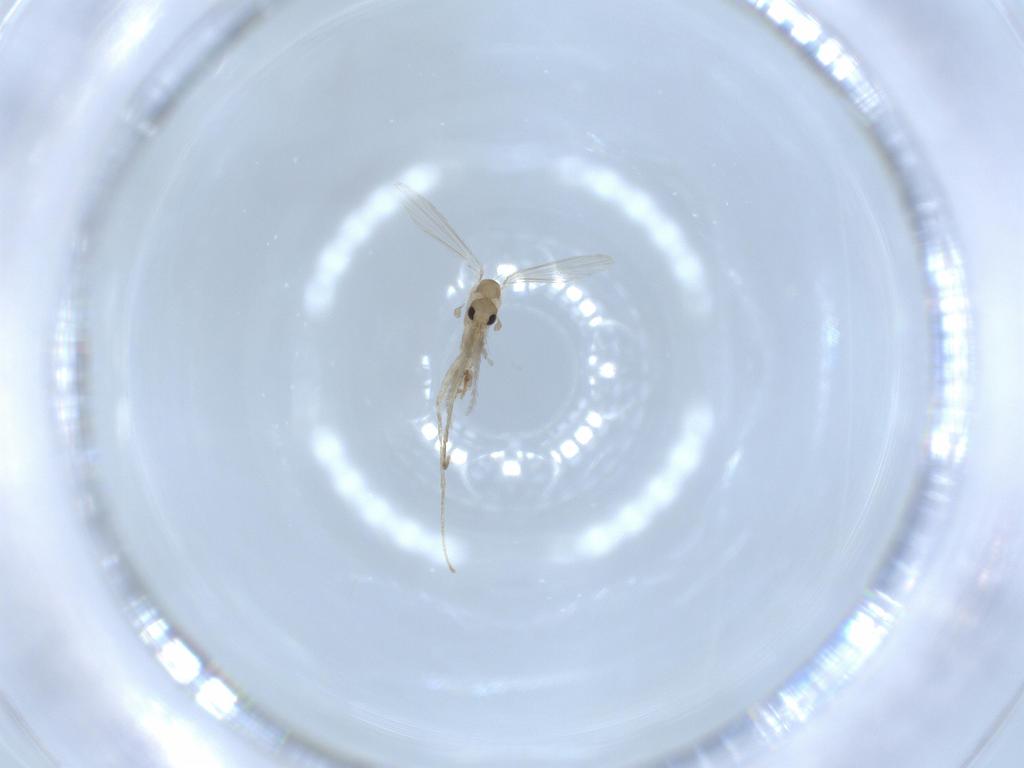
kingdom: Animalia
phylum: Arthropoda
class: Insecta
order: Diptera
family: Psychodidae
